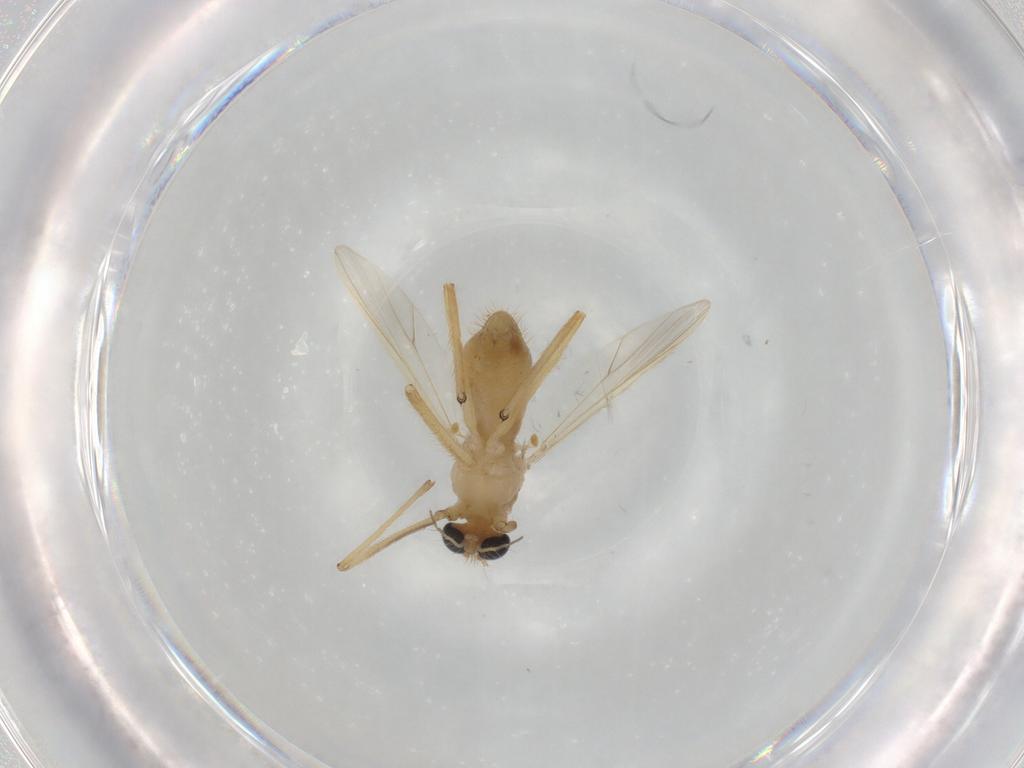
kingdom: Animalia
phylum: Arthropoda
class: Insecta
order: Diptera
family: Chironomidae
